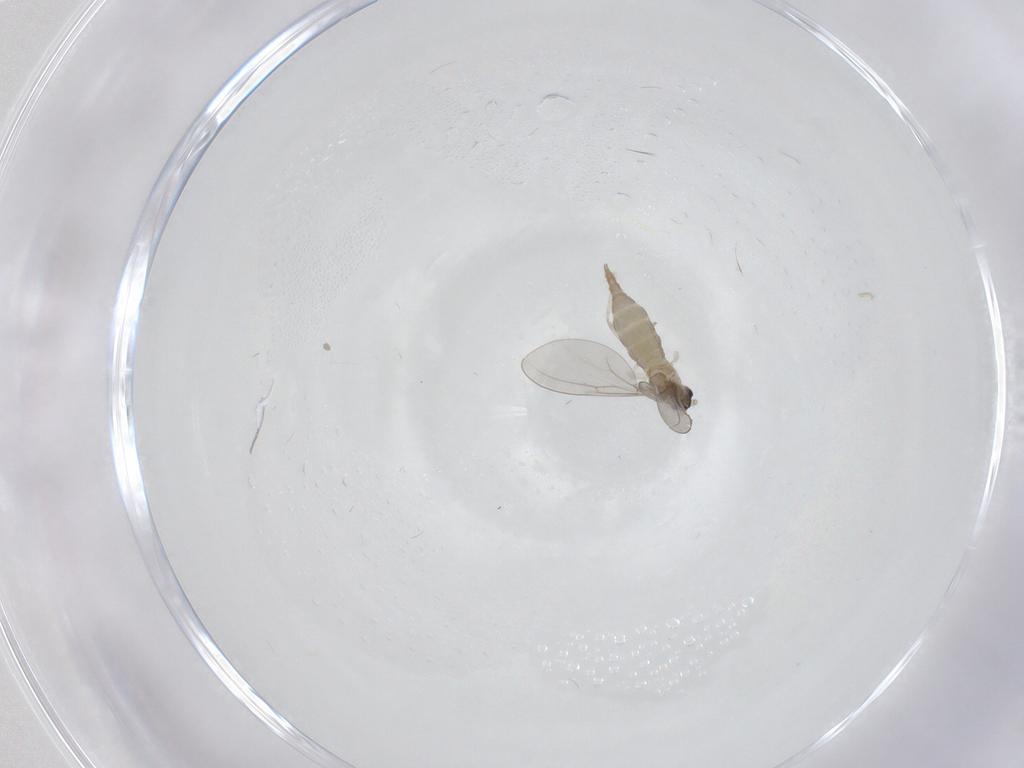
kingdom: Animalia
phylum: Arthropoda
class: Insecta
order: Diptera
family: Cecidomyiidae
